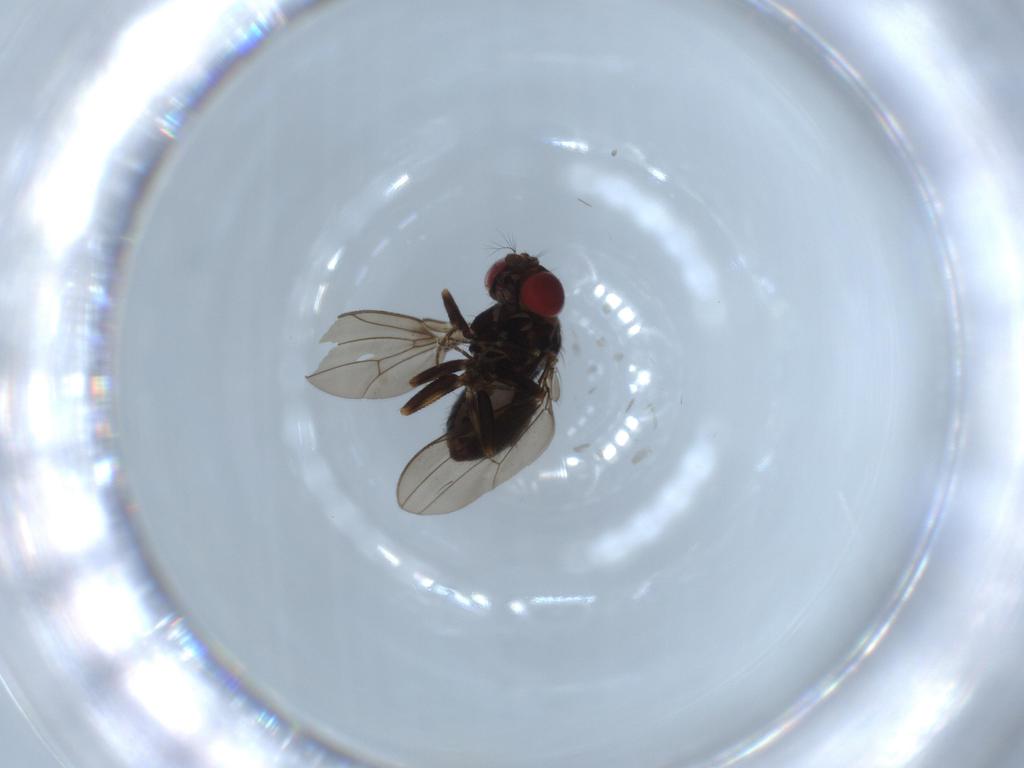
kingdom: Animalia
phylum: Arthropoda
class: Insecta
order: Diptera
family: Ephydridae
